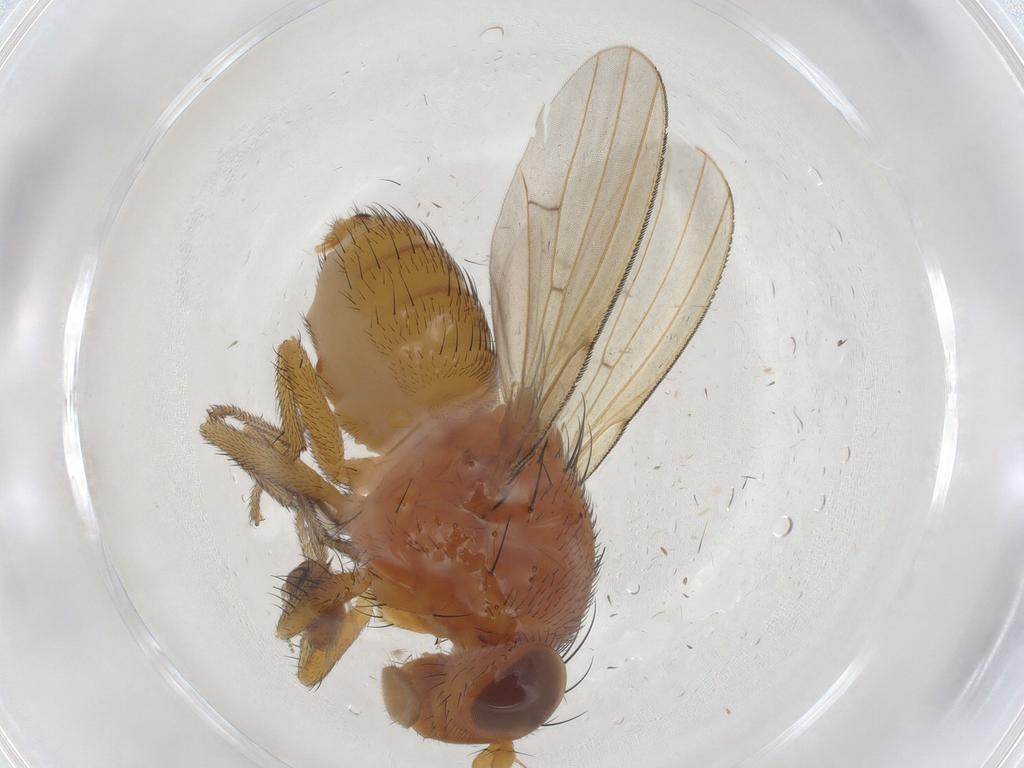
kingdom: Animalia
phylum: Arthropoda
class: Insecta
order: Diptera
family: Psychodidae
